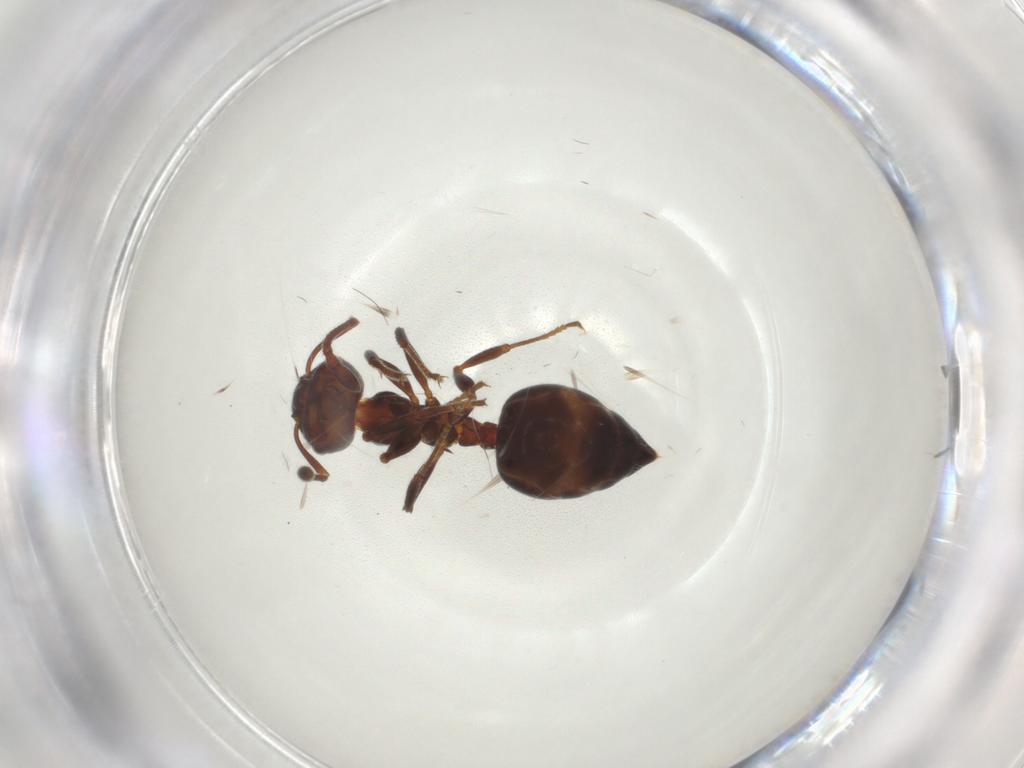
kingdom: Animalia
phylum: Arthropoda
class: Insecta
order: Hymenoptera
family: Formicidae
